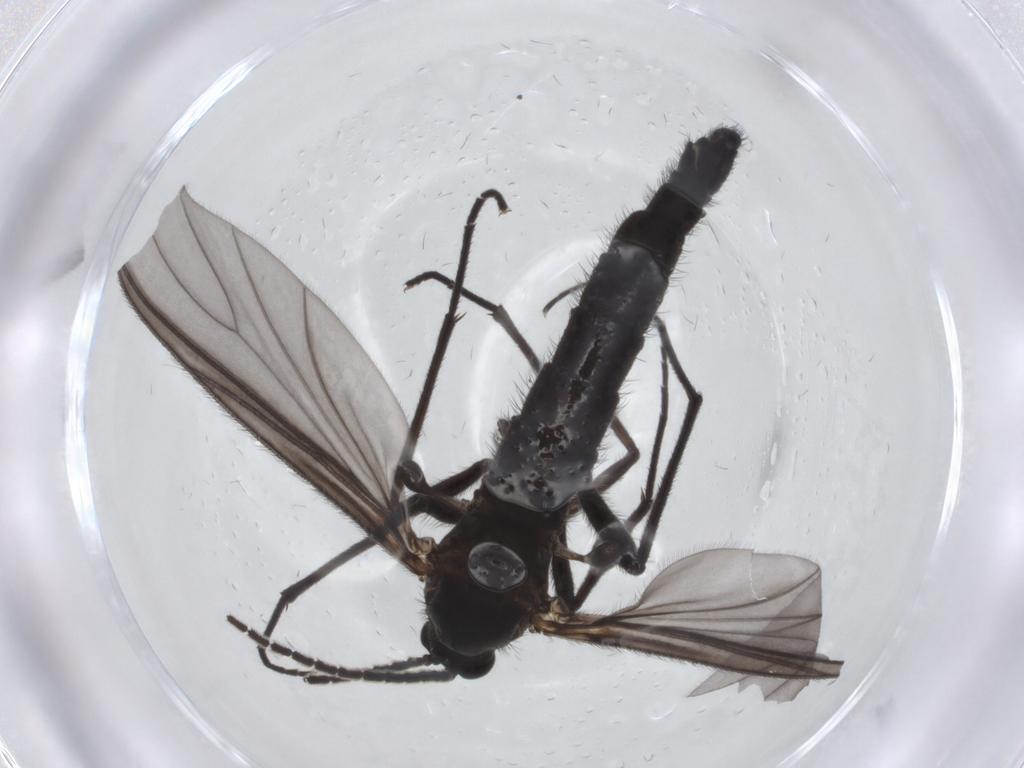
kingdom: Animalia
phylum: Arthropoda
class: Insecta
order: Diptera
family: Sciaridae
